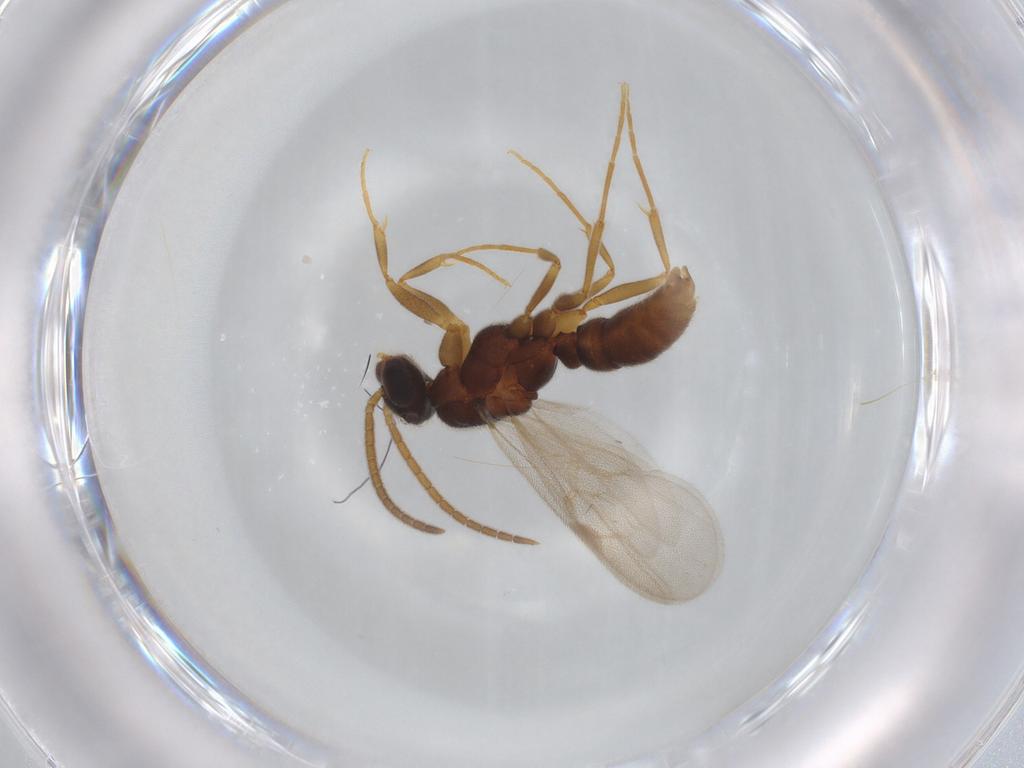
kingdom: Animalia
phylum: Arthropoda
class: Insecta
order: Hymenoptera
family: Formicidae
